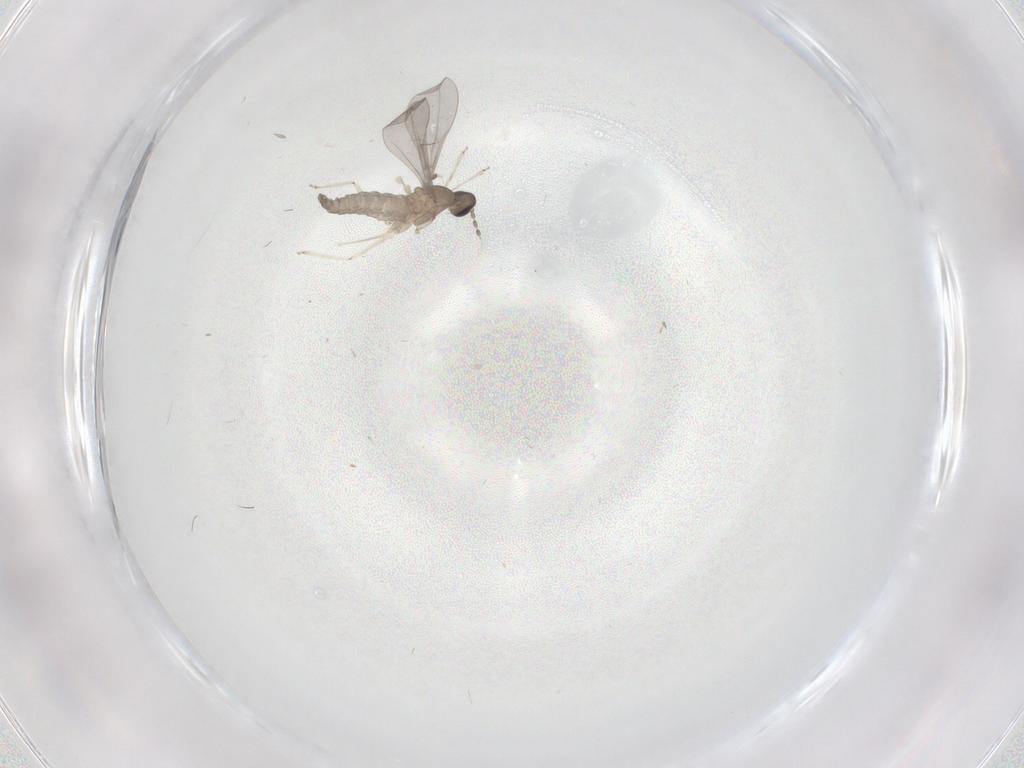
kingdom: Animalia
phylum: Arthropoda
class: Insecta
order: Diptera
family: Cecidomyiidae
